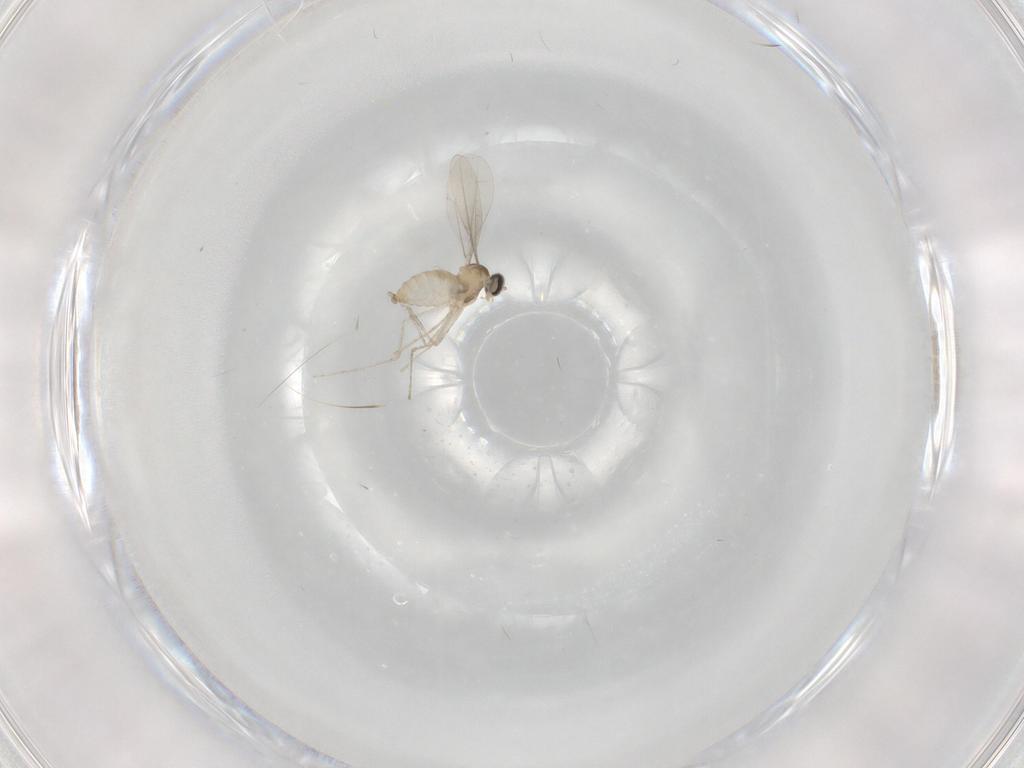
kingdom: Animalia
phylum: Arthropoda
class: Insecta
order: Diptera
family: Cecidomyiidae
